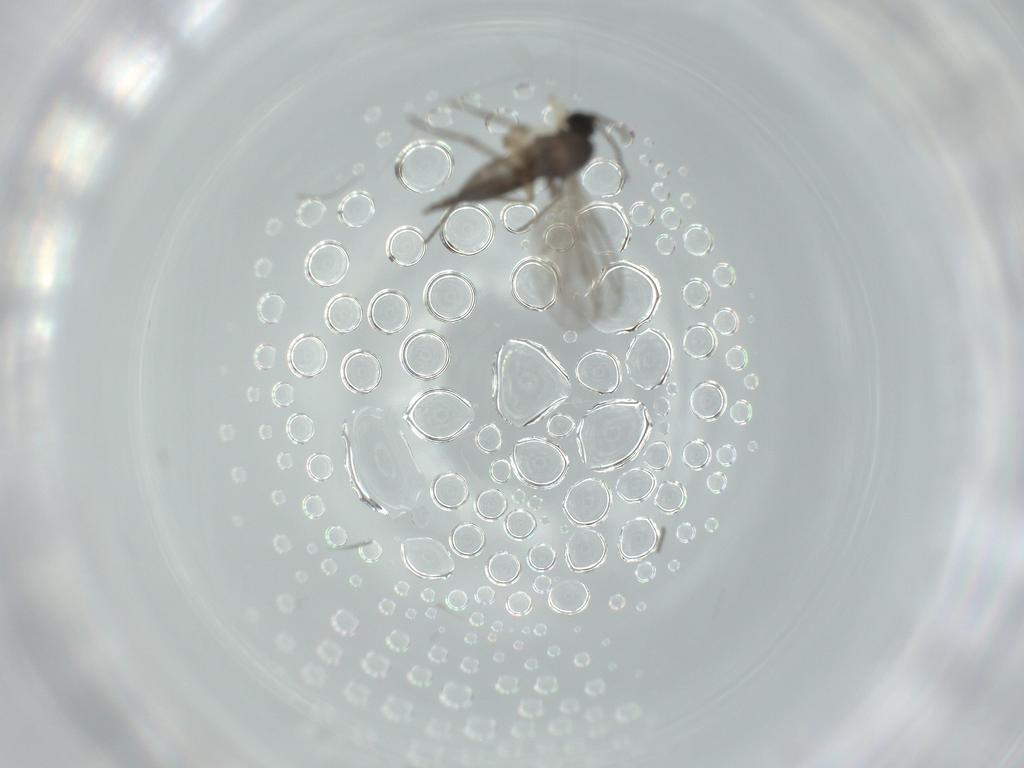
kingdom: Animalia
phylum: Arthropoda
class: Insecta
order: Diptera
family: Sciaridae
